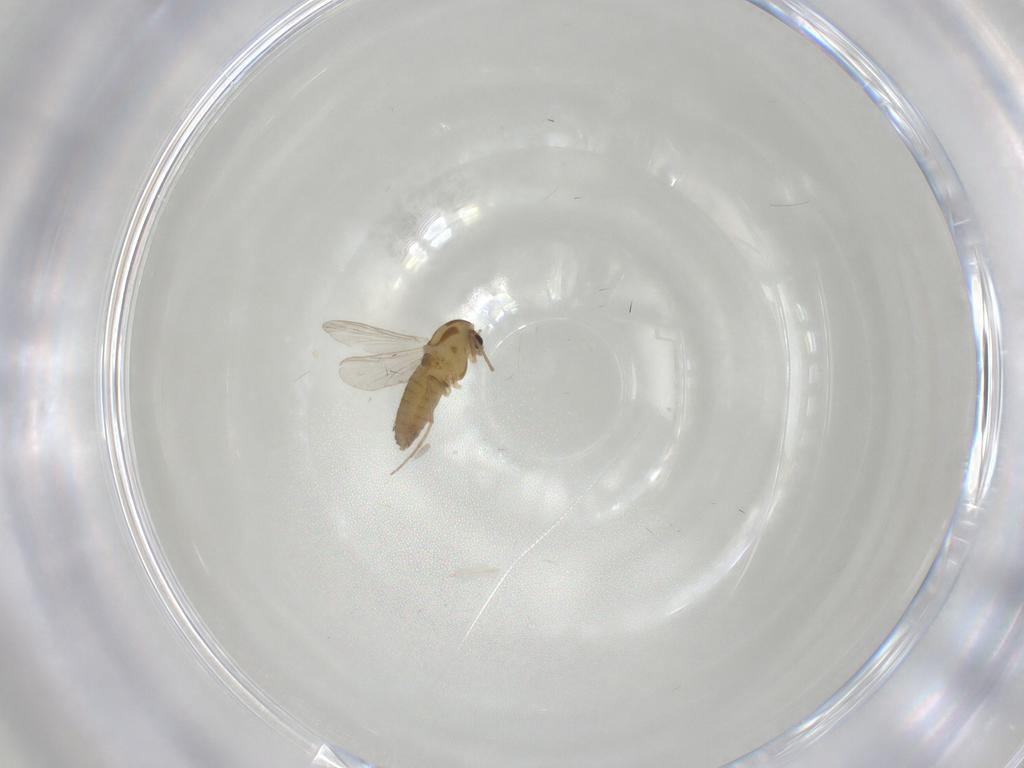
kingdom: Animalia
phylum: Arthropoda
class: Insecta
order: Diptera
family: Chironomidae
